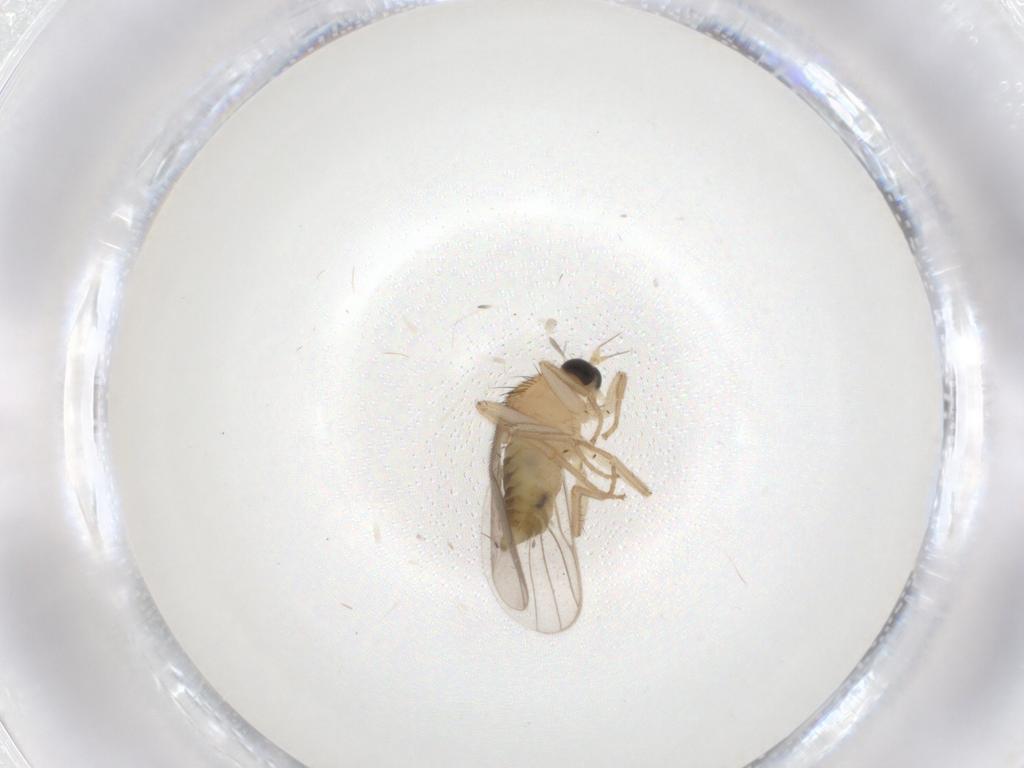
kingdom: Animalia
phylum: Arthropoda
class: Insecta
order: Diptera
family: Hybotidae
